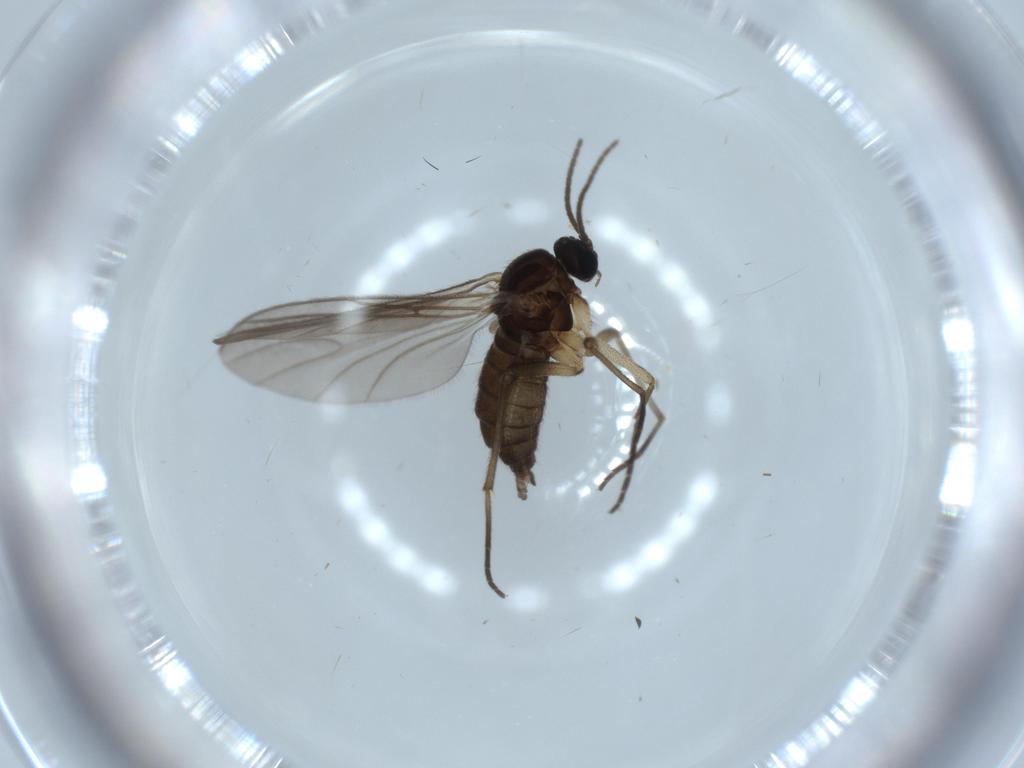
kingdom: Animalia
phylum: Arthropoda
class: Insecta
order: Diptera
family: Sciaridae
